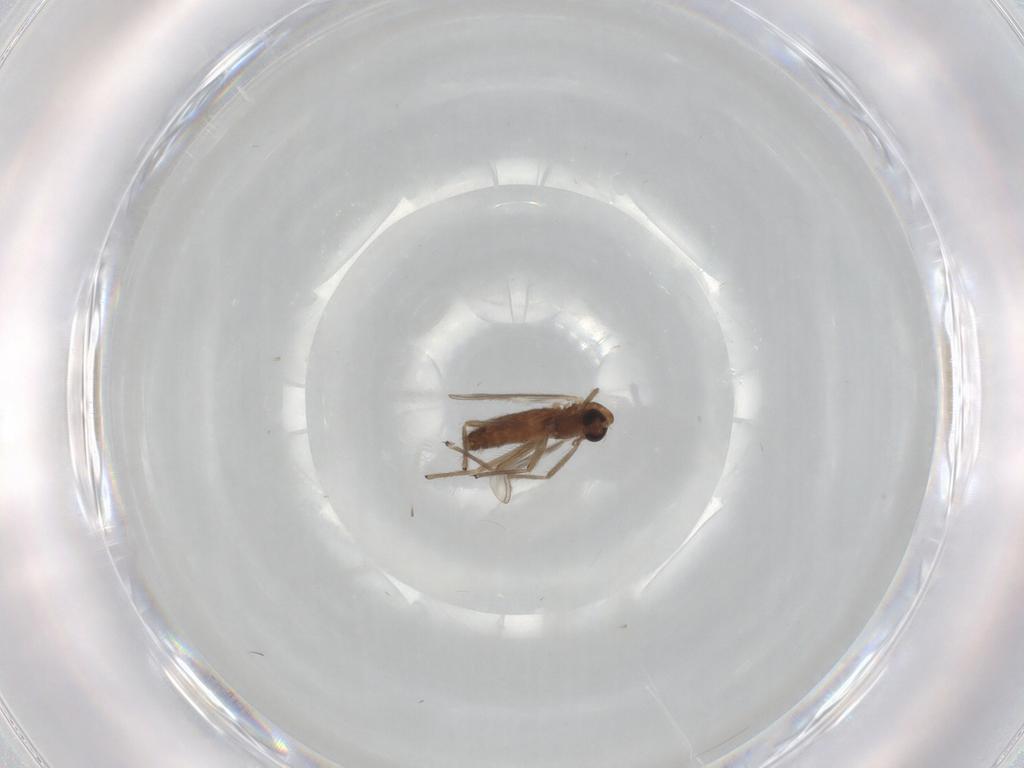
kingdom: Animalia
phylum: Arthropoda
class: Insecta
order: Diptera
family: Chironomidae
